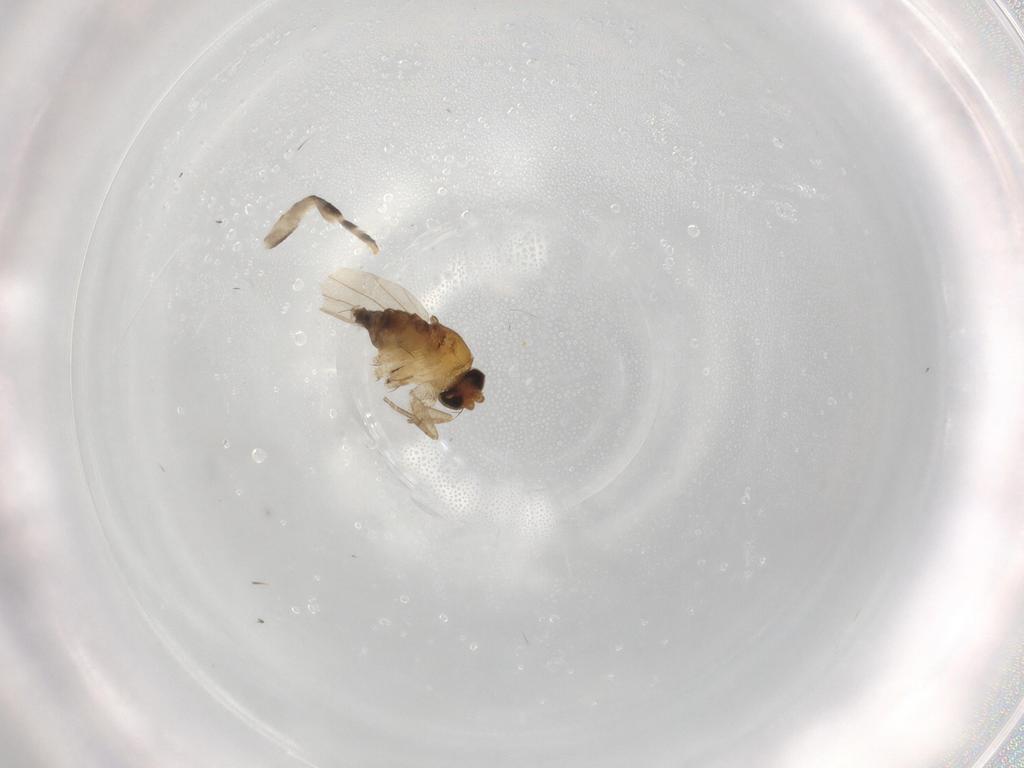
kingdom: Animalia
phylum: Arthropoda
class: Insecta
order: Diptera
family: Phoridae
